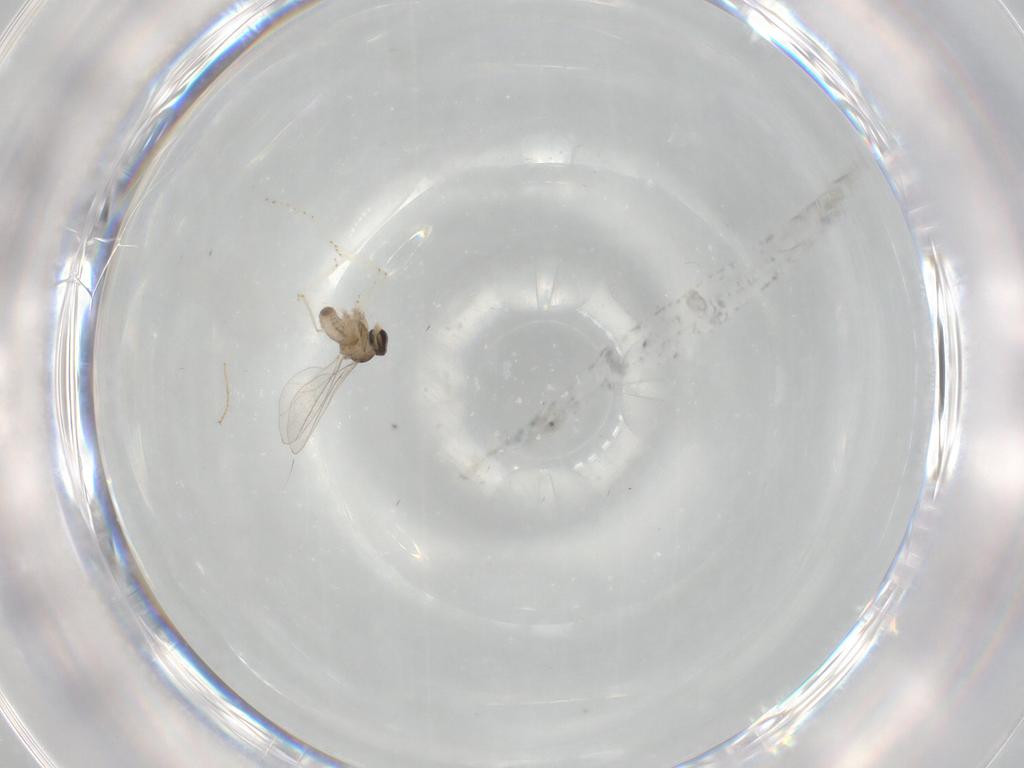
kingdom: Animalia
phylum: Arthropoda
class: Insecta
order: Diptera
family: Cecidomyiidae
